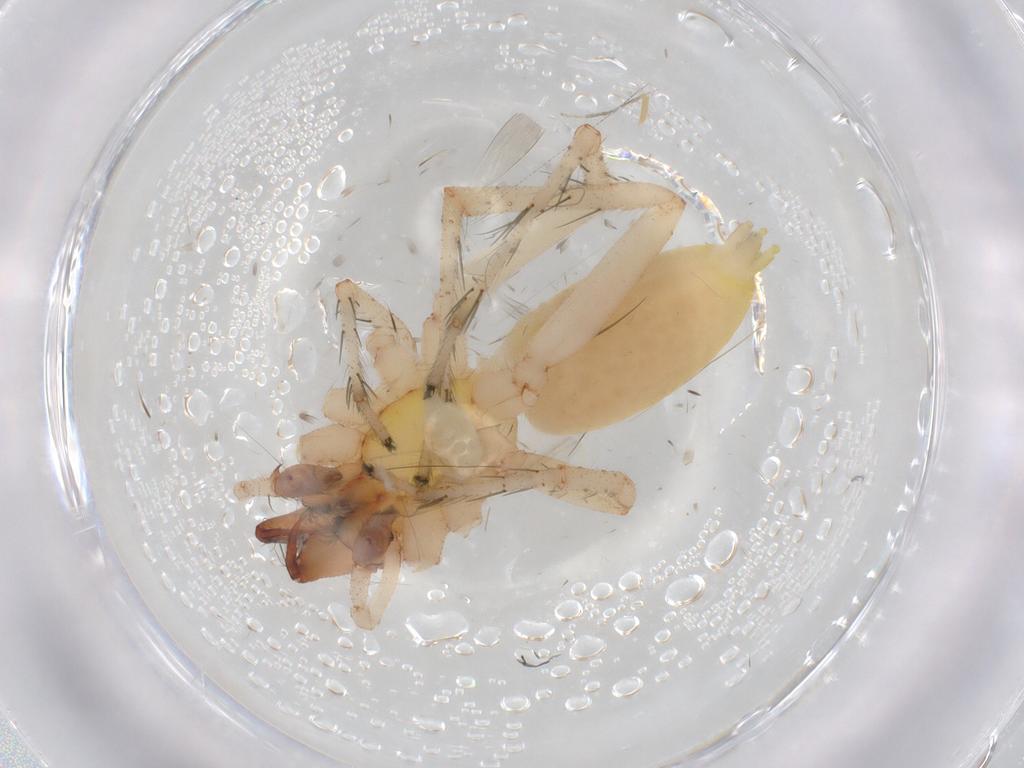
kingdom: Animalia
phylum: Arthropoda
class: Arachnida
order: Araneae
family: Anyphaenidae
